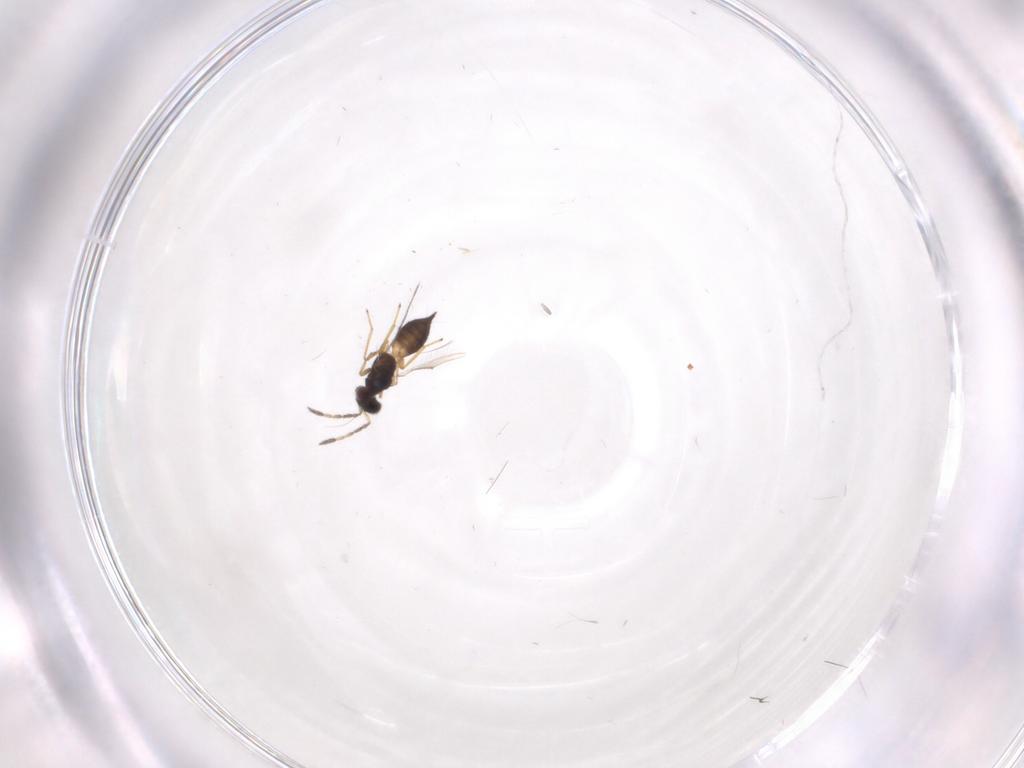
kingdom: Animalia
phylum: Arthropoda
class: Insecta
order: Hymenoptera
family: Eulophidae
